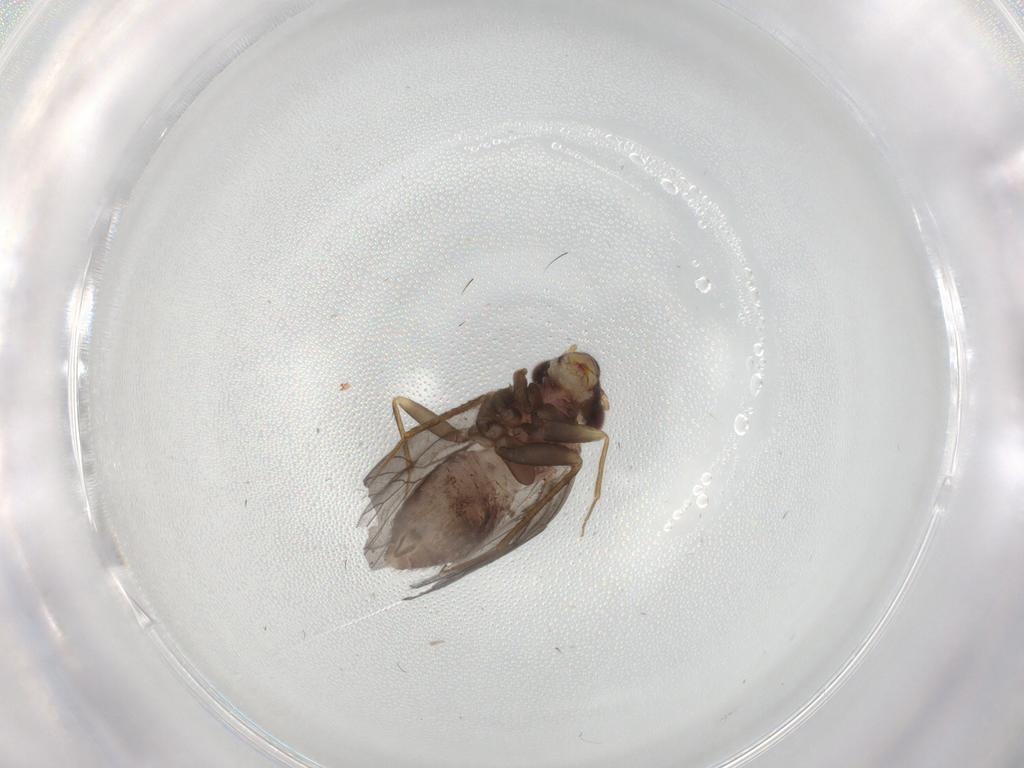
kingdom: Animalia
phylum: Arthropoda
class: Insecta
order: Psocodea
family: Lepidopsocidae
